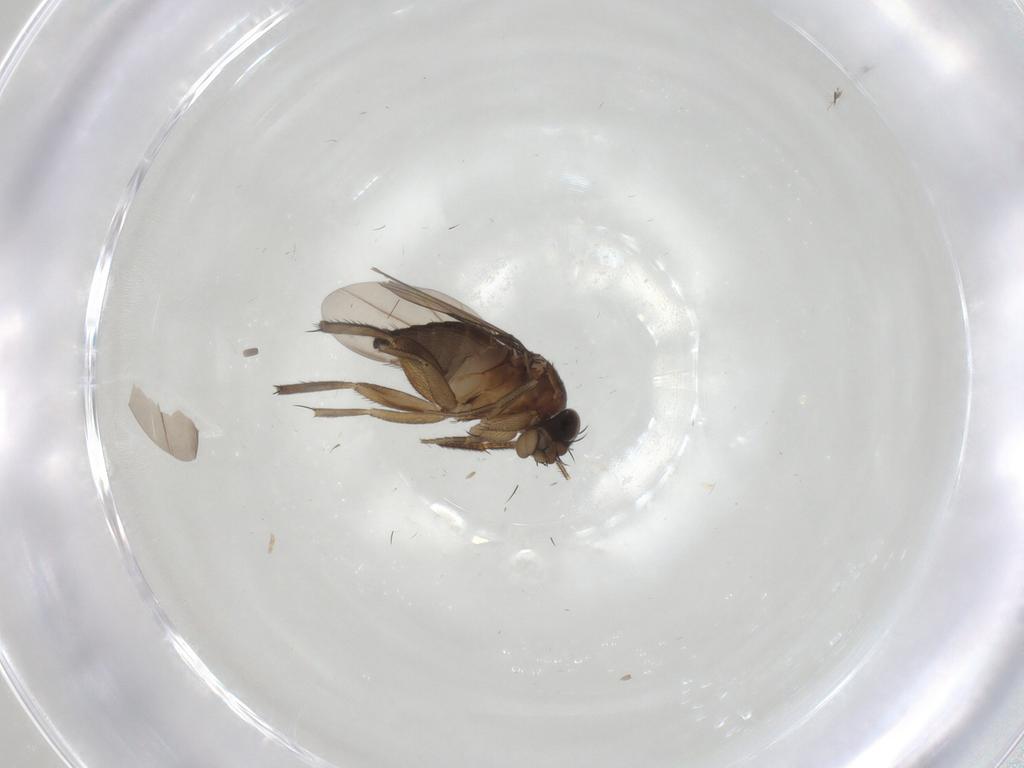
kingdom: Animalia
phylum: Arthropoda
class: Insecta
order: Diptera
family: Phoridae
